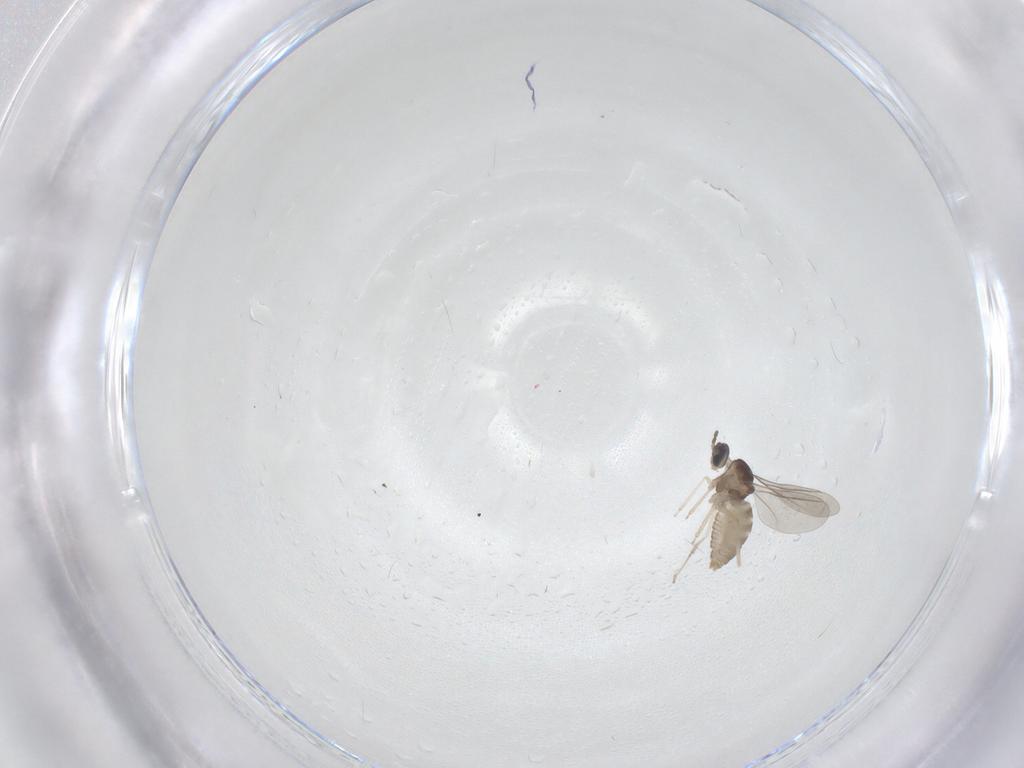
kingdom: Animalia
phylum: Arthropoda
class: Insecta
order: Diptera
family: Cecidomyiidae
